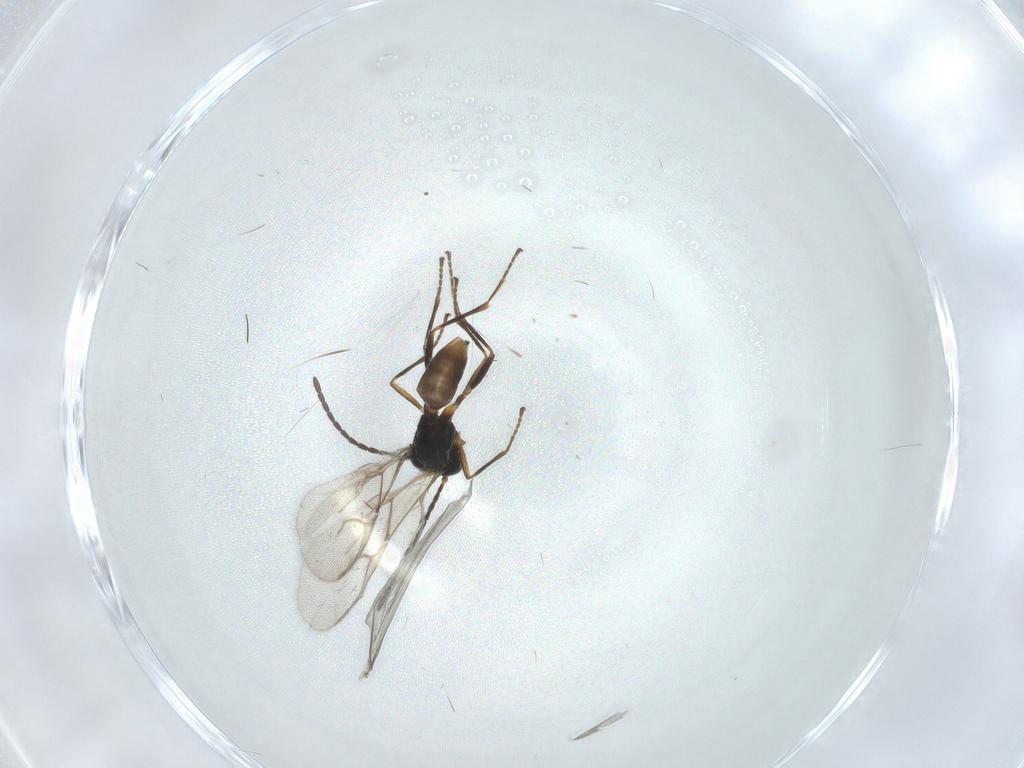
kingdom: Animalia
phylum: Arthropoda
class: Insecta
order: Hymenoptera
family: Braconidae
